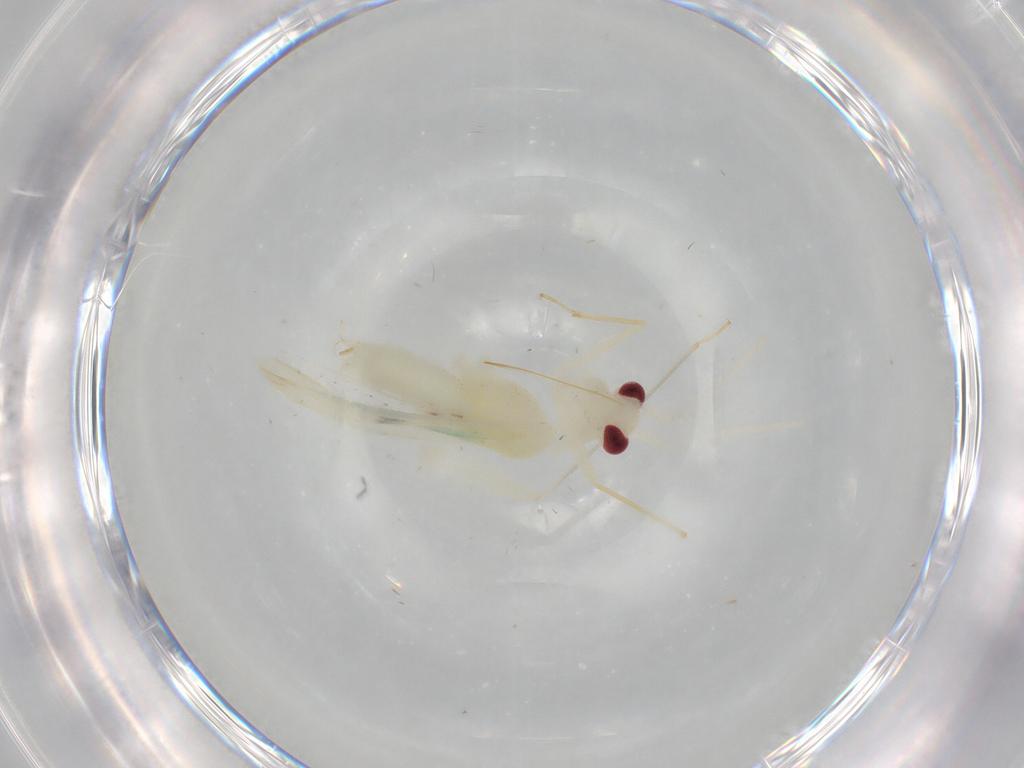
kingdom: Animalia
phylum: Arthropoda
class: Insecta
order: Hemiptera
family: Miridae
